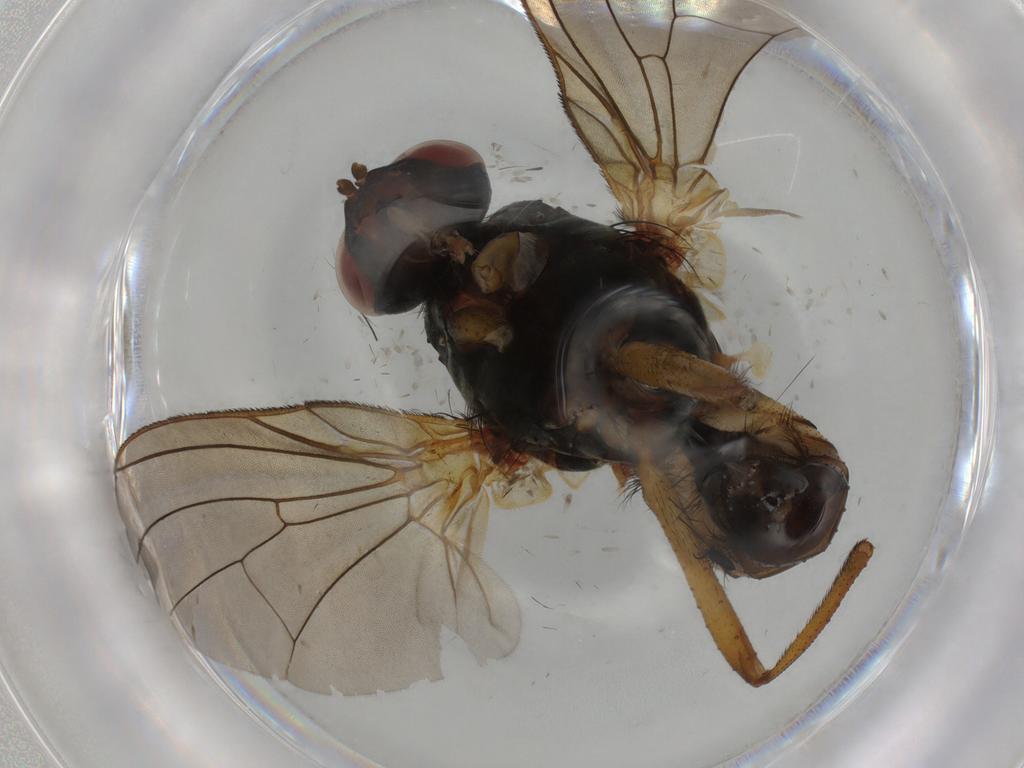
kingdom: Animalia
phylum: Arthropoda
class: Insecta
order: Diptera
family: Anthomyiidae
